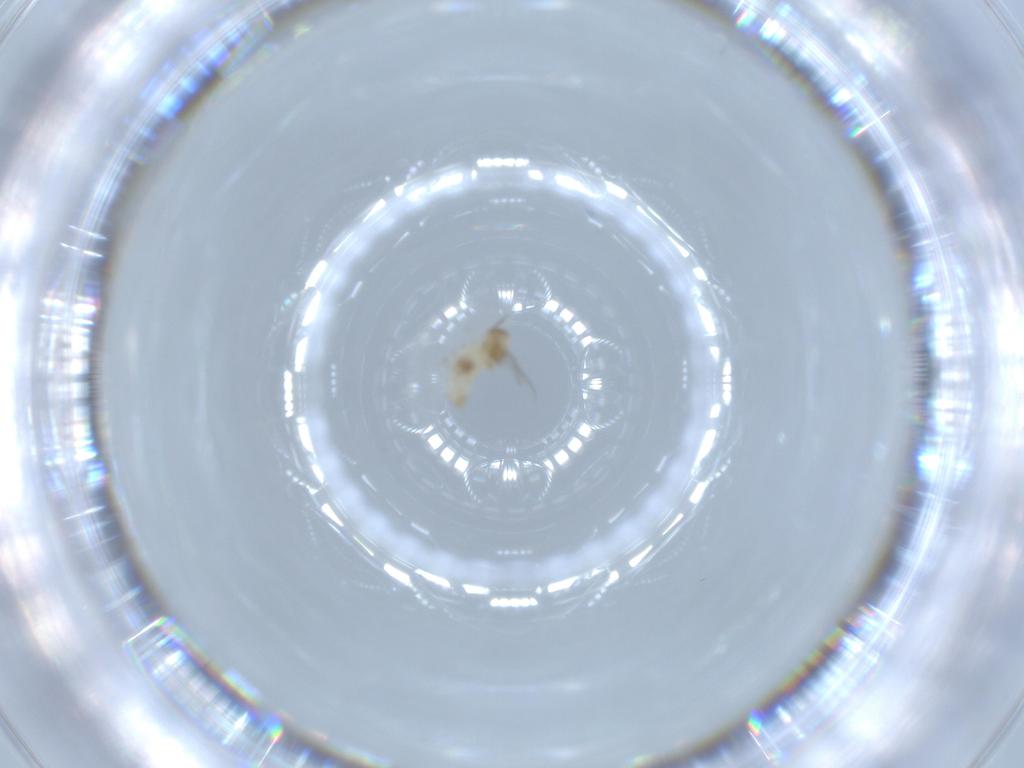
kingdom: Animalia
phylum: Arthropoda
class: Insecta
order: Diptera
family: Cecidomyiidae
